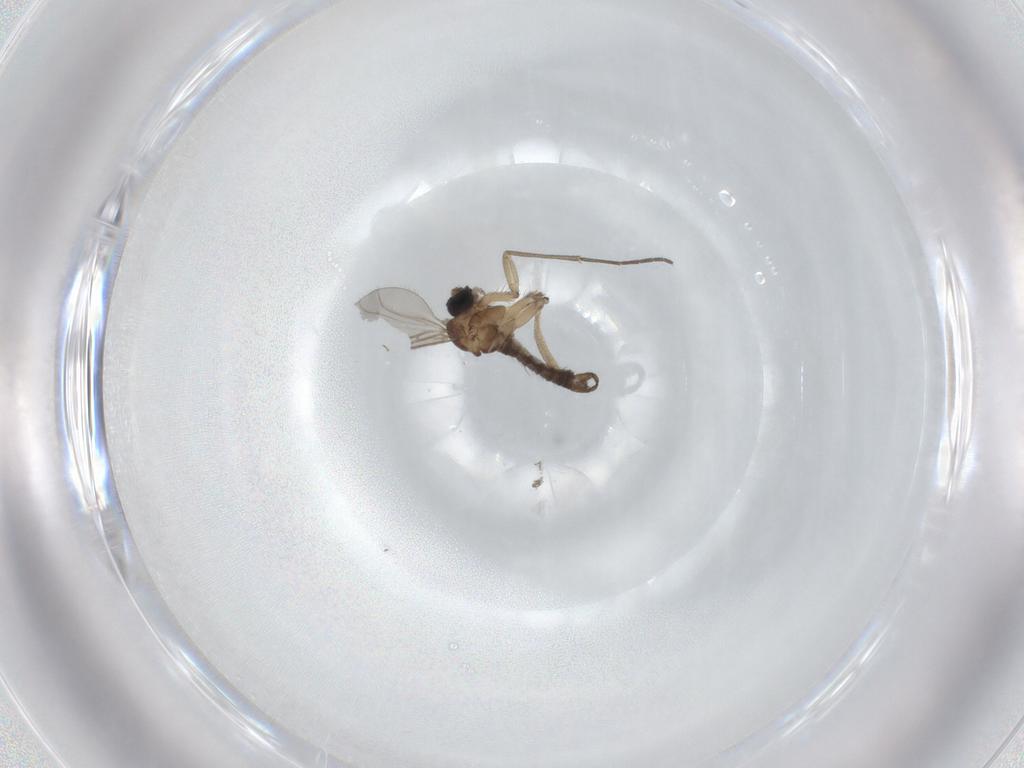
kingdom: Animalia
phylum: Arthropoda
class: Insecta
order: Diptera
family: Sciaridae
